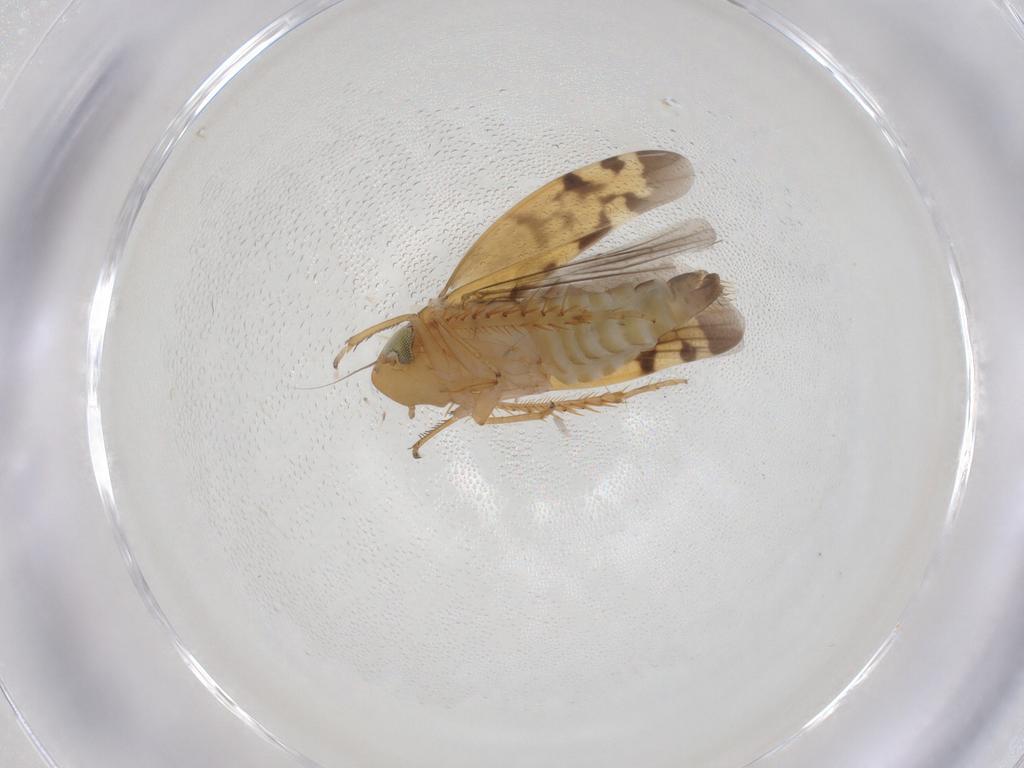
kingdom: Animalia
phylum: Arthropoda
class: Insecta
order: Hemiptera
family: Cicadellidae
